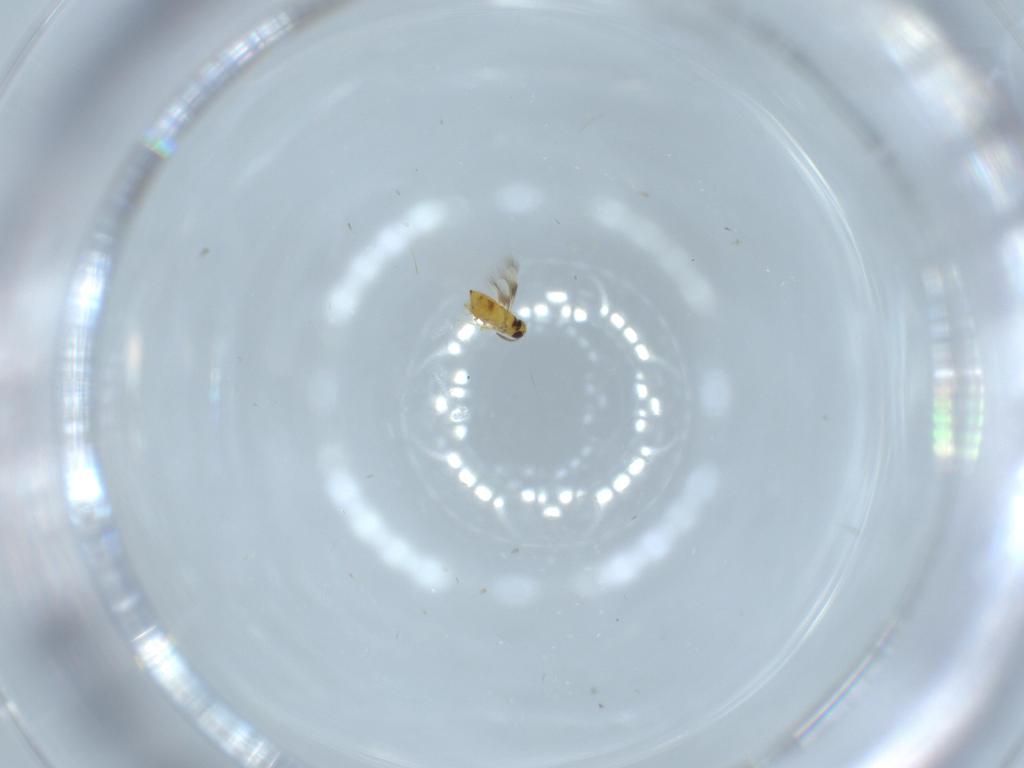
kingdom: Animalia
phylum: Arthropoda
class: Insecta
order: Hymenoptera
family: Signiphoridae
